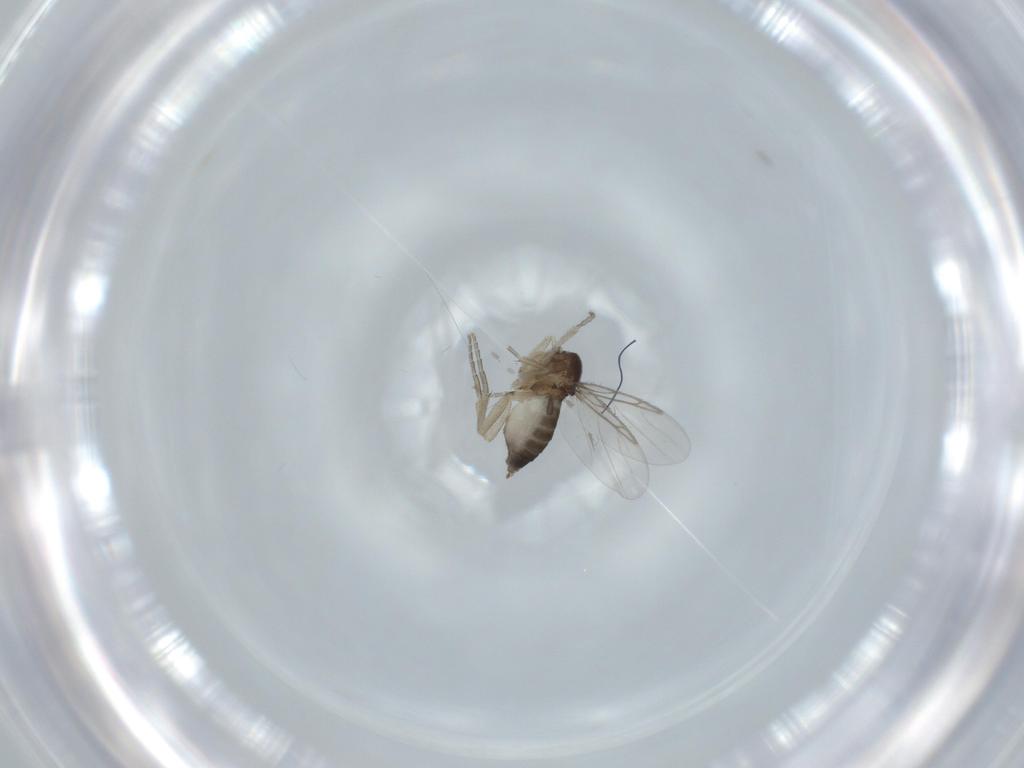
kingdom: Animalia
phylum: Arthropoda
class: Insecta
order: Diptera
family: Phoridae
